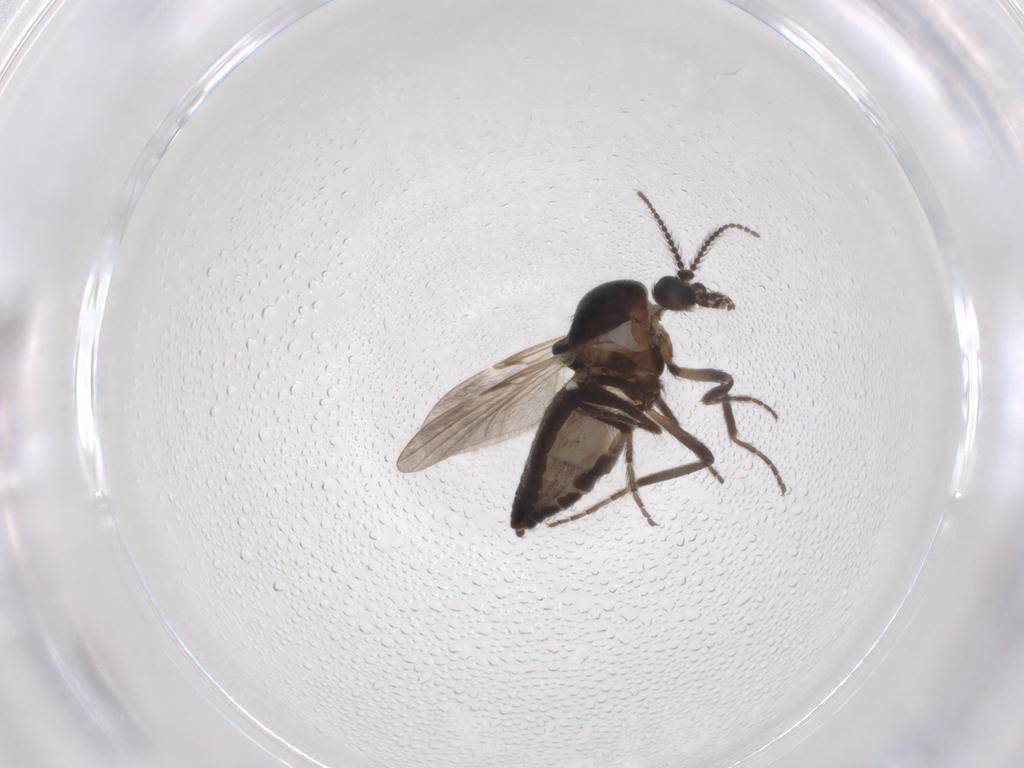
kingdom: Animalia
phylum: Arthropoda
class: Insecta
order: Diptera
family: Ceratopogonidae
